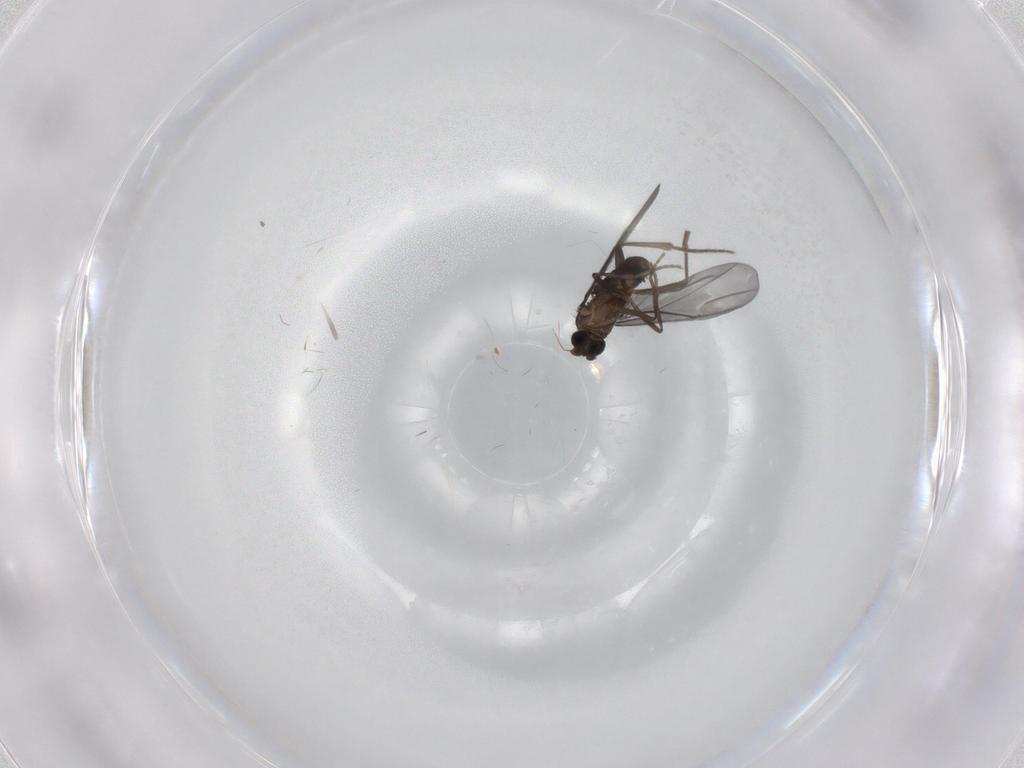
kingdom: Animalia
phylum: Arthropoda
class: Insecta
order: Diptera
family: Phoridae
